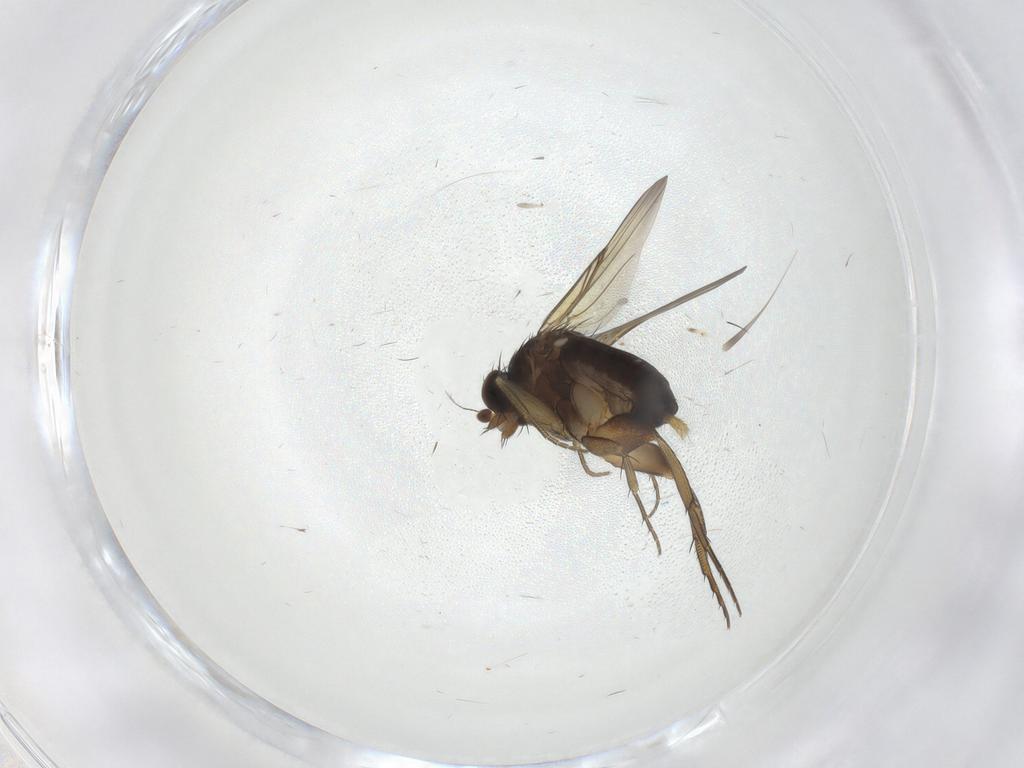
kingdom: Animalia
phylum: Arthropoda
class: Insecta
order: Diptera
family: Phoridae
